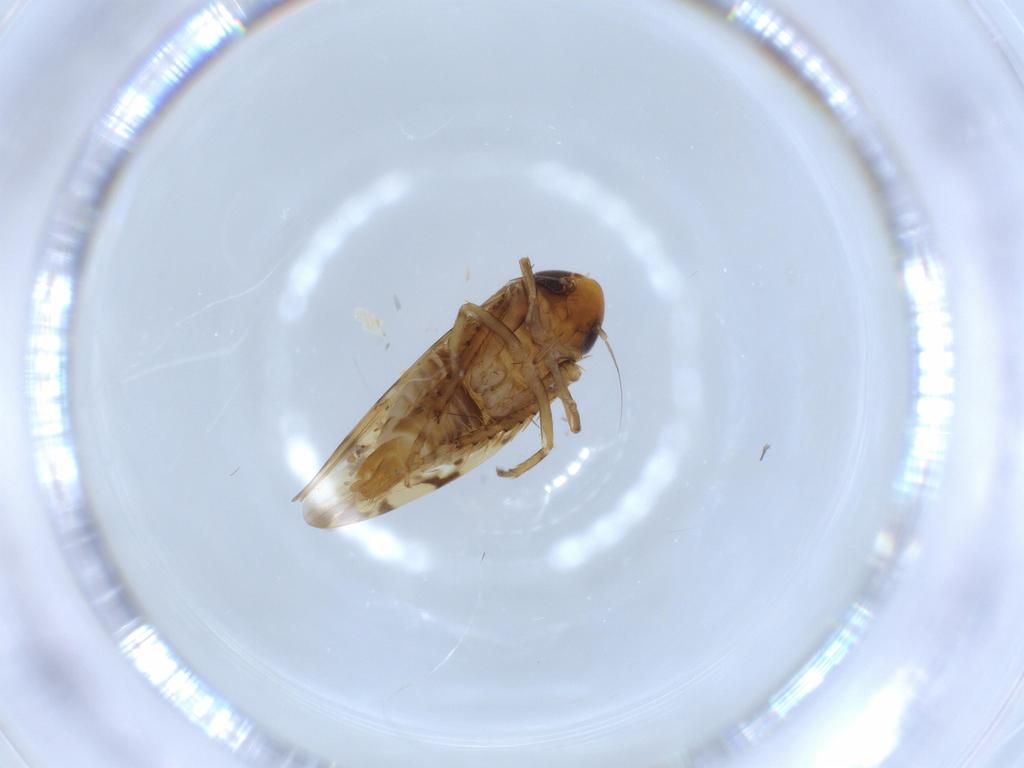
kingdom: Animalia
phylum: Arthropoda
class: Insecta
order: Hemiptera
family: Cicadellidae
